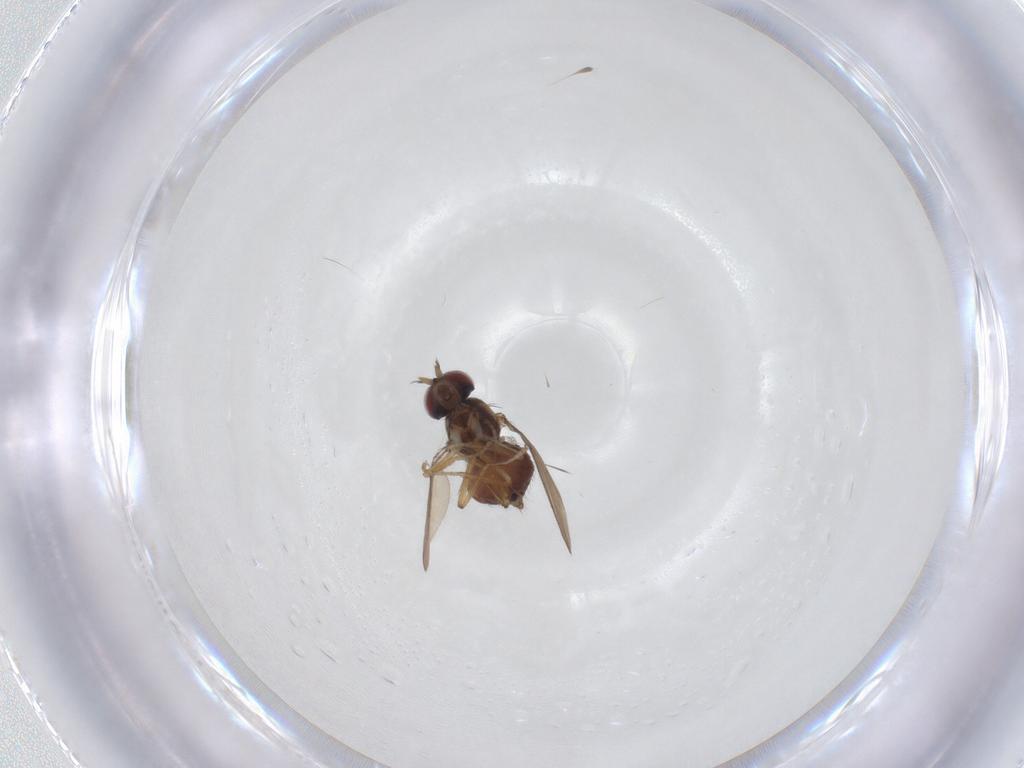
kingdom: Animalia
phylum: Arthropoda
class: Insecta
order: Diptera
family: Muscidae
